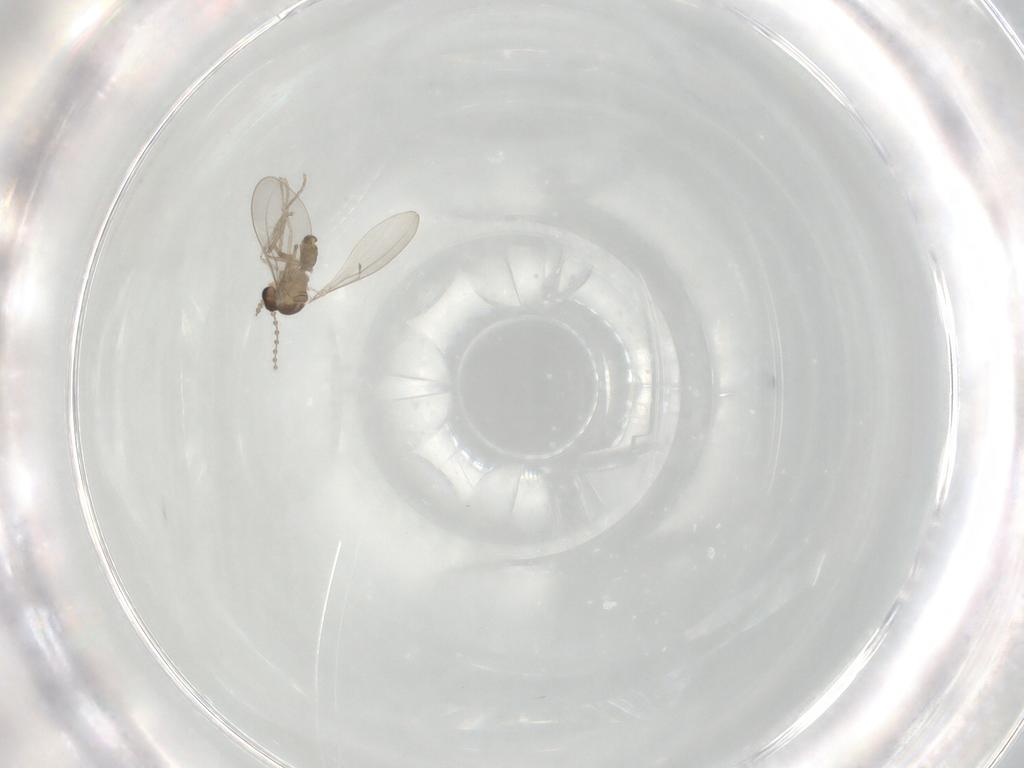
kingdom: Animalia
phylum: Arthropoda
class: Insecta
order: Diptera
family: Cecidomyiidae
